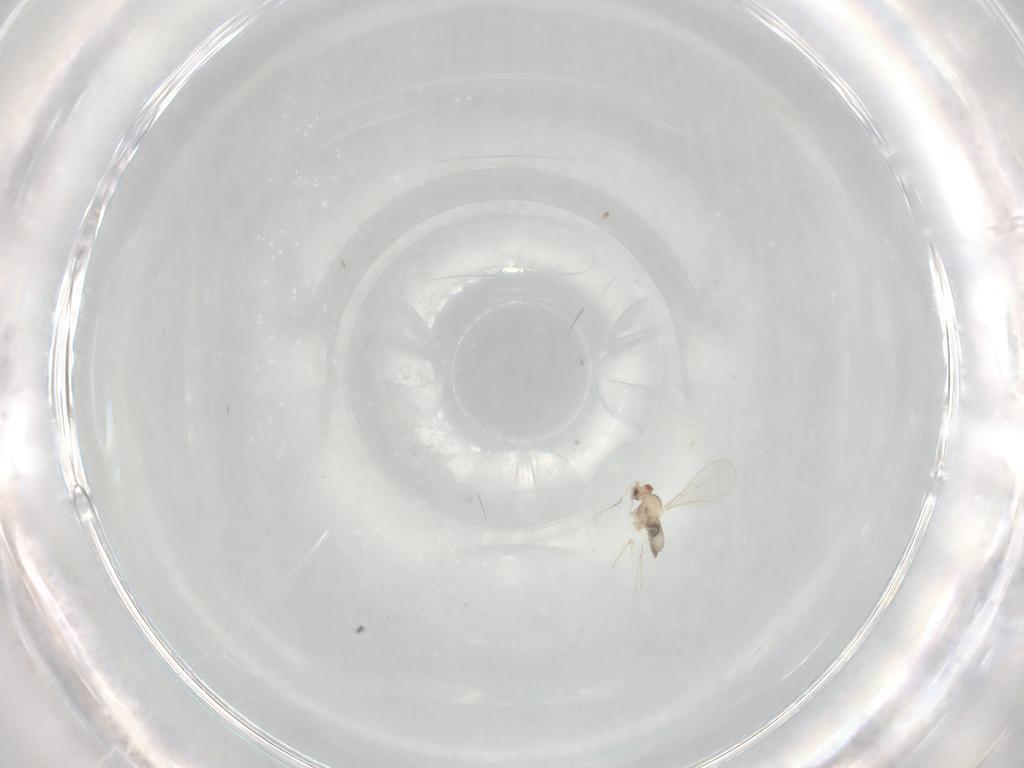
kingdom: Animalia
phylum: Arthropoda
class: Insecta
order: Diptera
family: Cecidomyiidae
